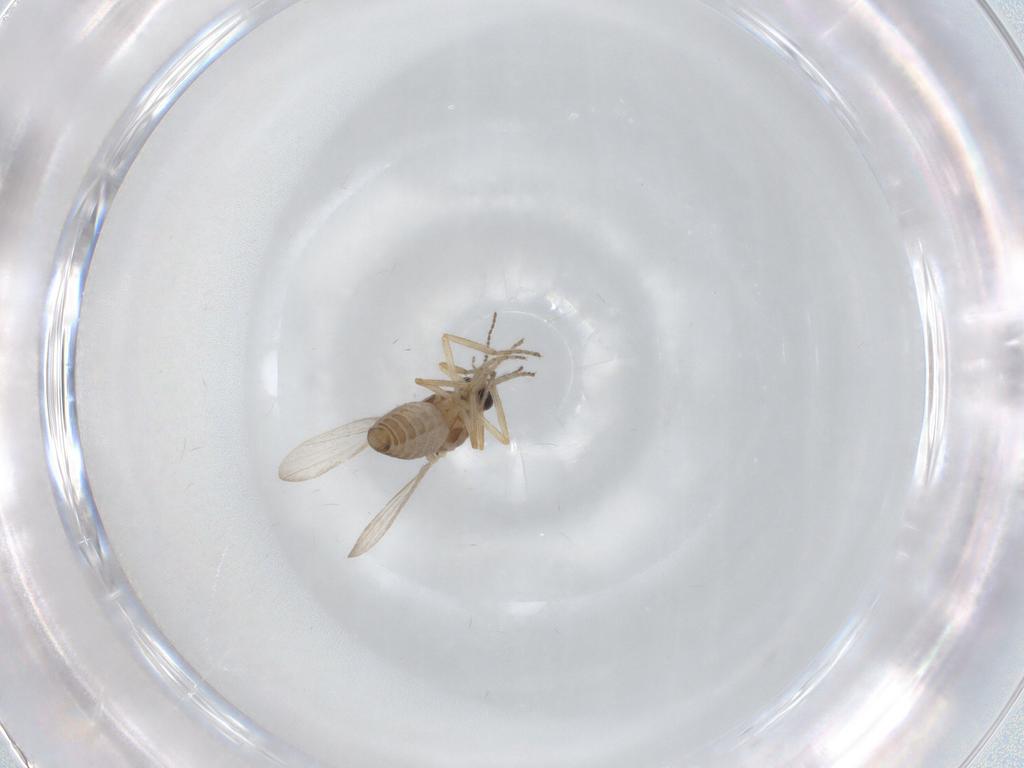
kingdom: Animalia
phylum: Arthropoda
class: Insecta
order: Diptera
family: Ceratopogonidae
